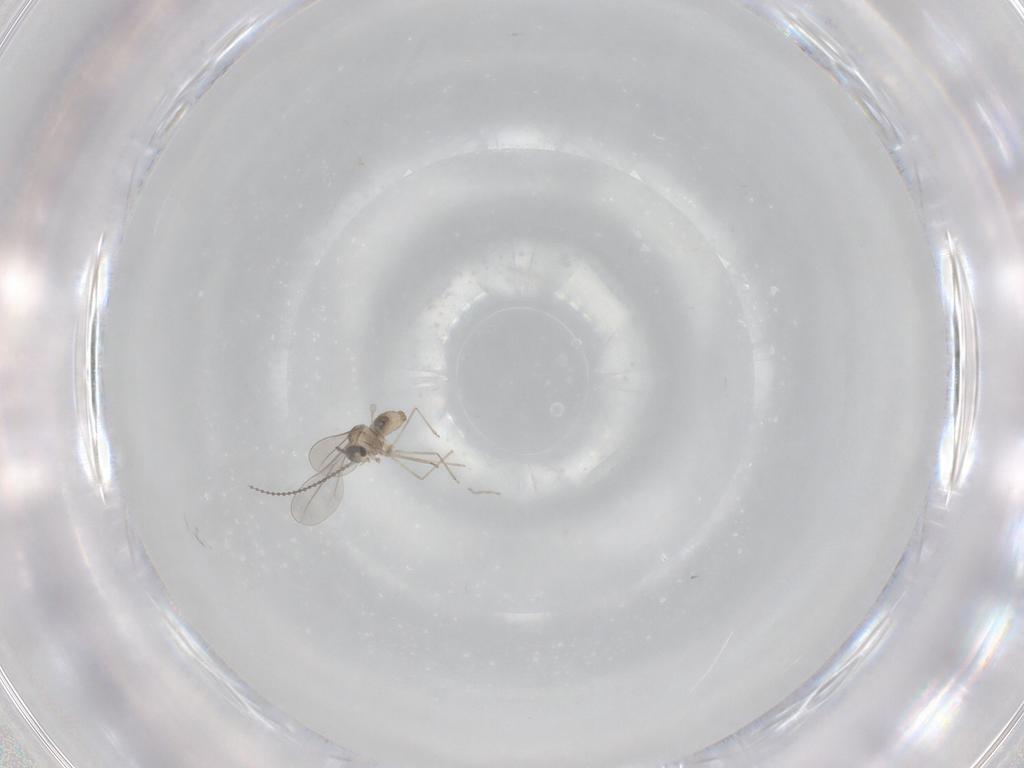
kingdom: Animalia
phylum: Arthropoda
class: Insecta
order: Diptera
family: Cecidomyiidae
